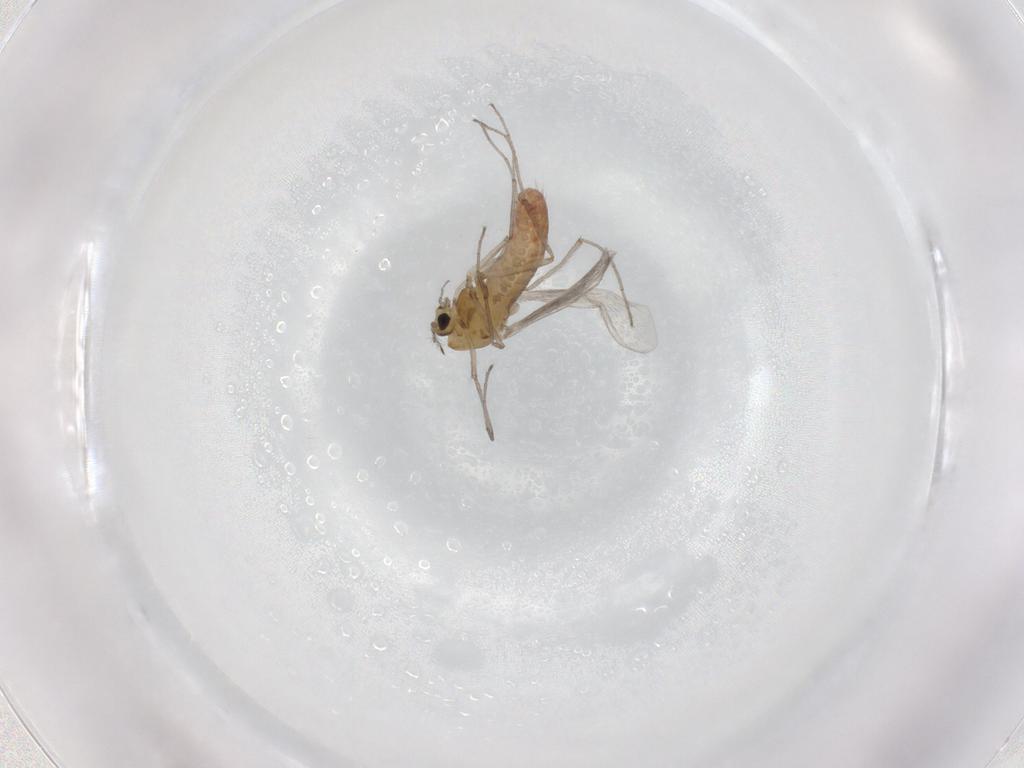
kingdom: Animalia
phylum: Arthropoda
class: Insecta
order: Diptera
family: Chironomidae
